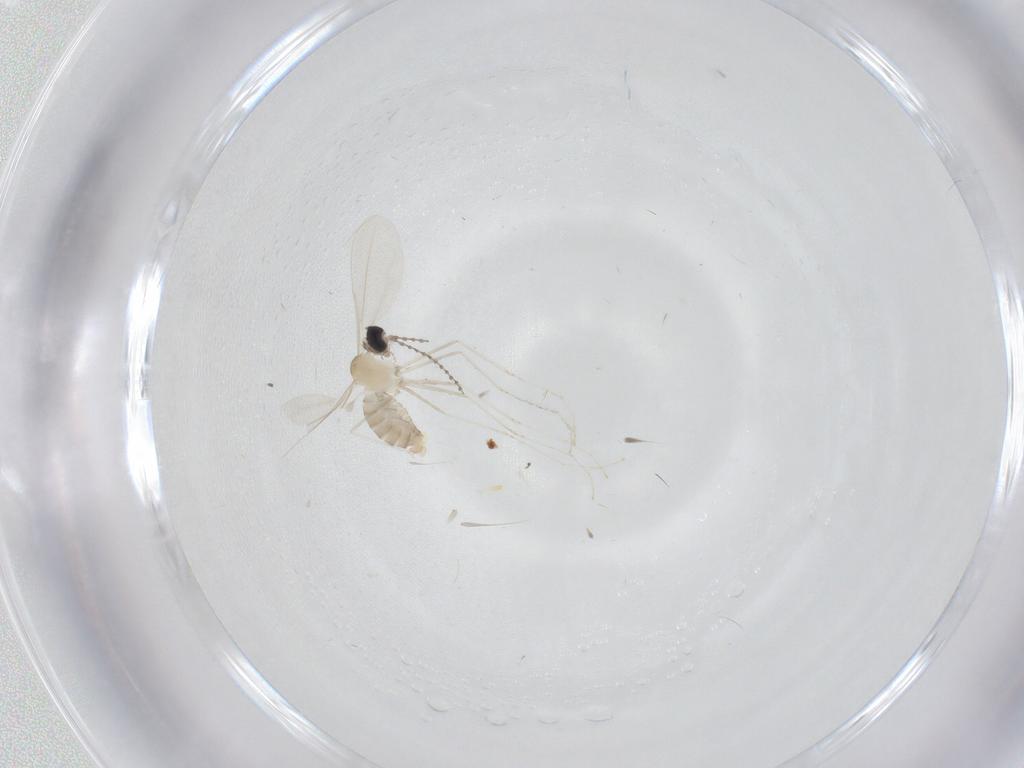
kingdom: Animalia
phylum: Arthropoda
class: Insecta
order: Diptera
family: Cecidomyiidae
